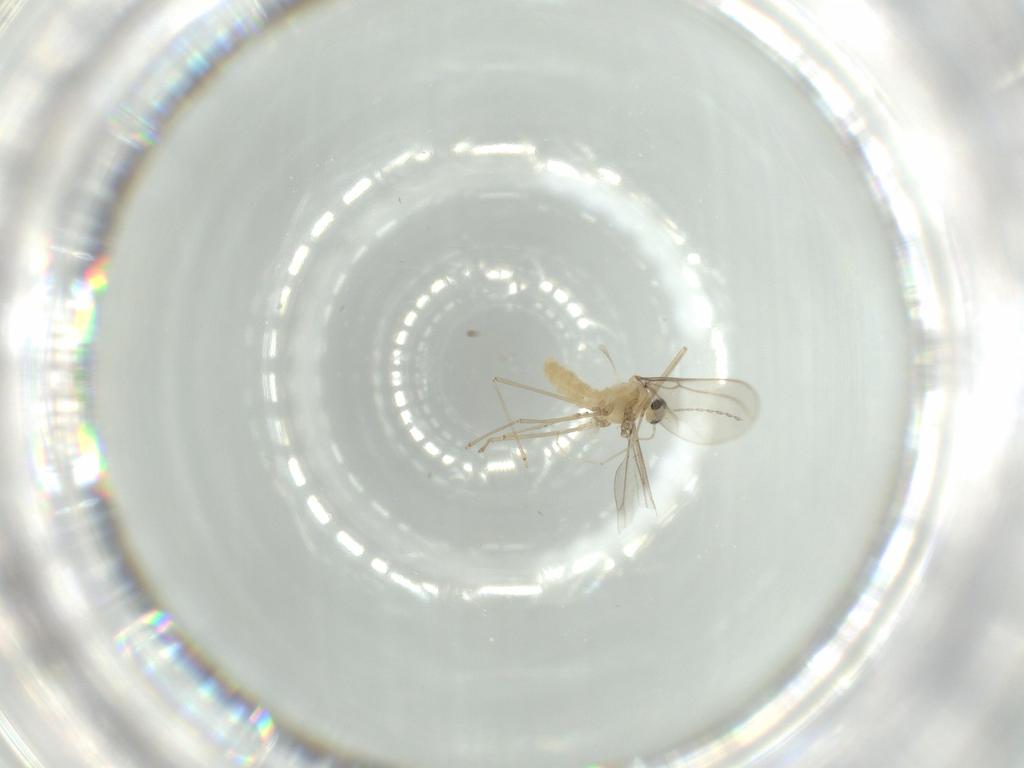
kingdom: Animalia
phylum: Arthropoda
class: Insecta
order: Diptera
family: Cecidomyiidae
